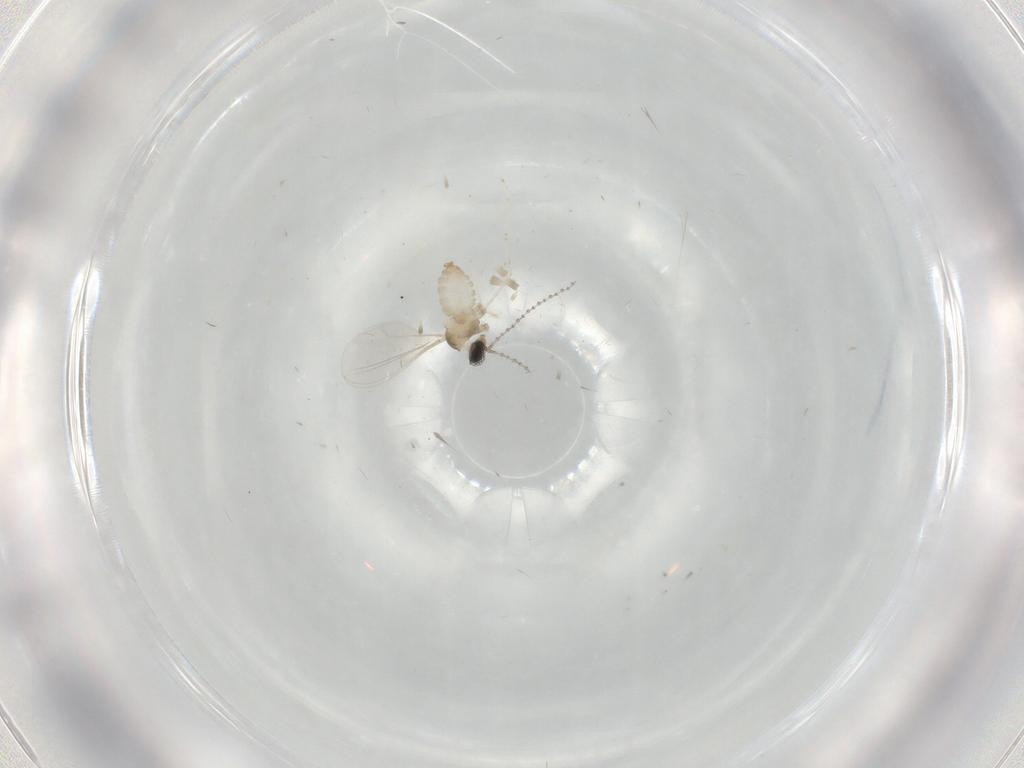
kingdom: Animalia
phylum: Arthropoda
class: Insecta
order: Diptera
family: Cecidomyiidae
